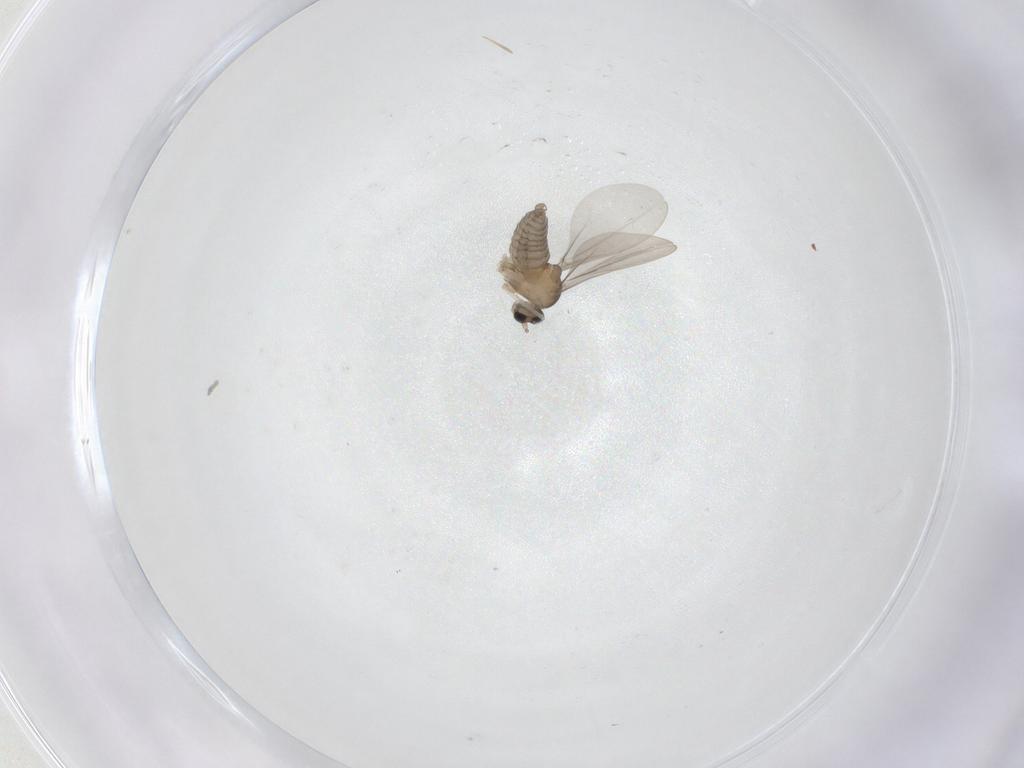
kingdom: Animalia
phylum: Arthropoda
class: Insecta
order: Diptera
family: Cecidomyiidae
